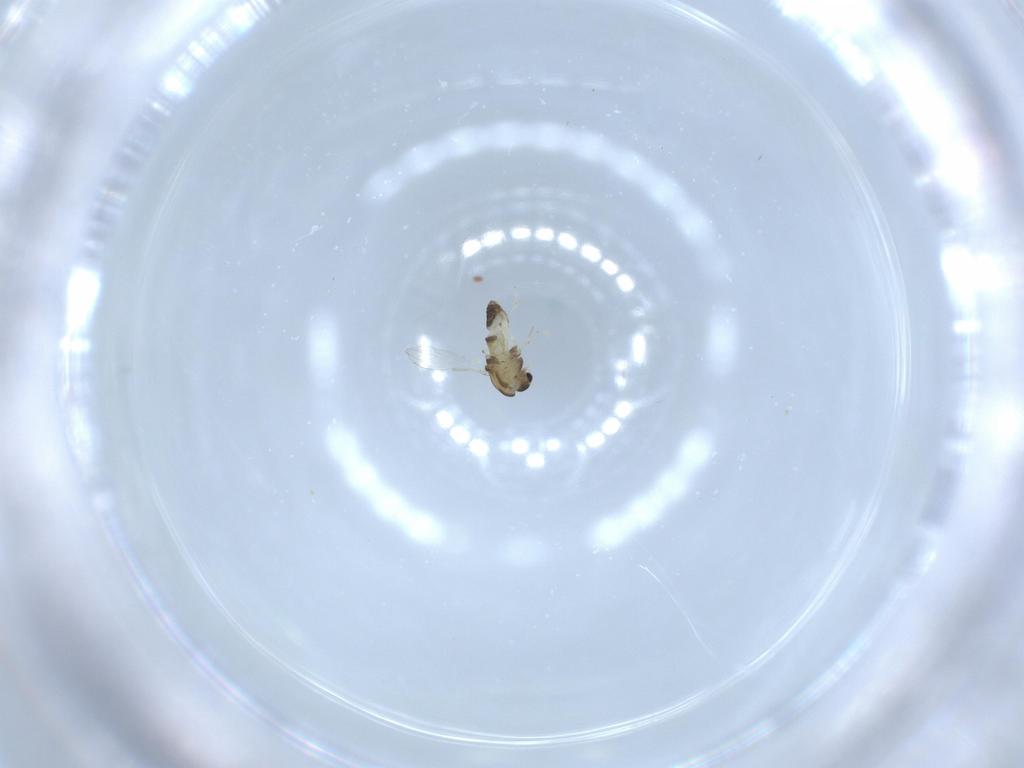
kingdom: Animalia
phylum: Arthropoda
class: Insecta
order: Diptera
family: Chironomidae
